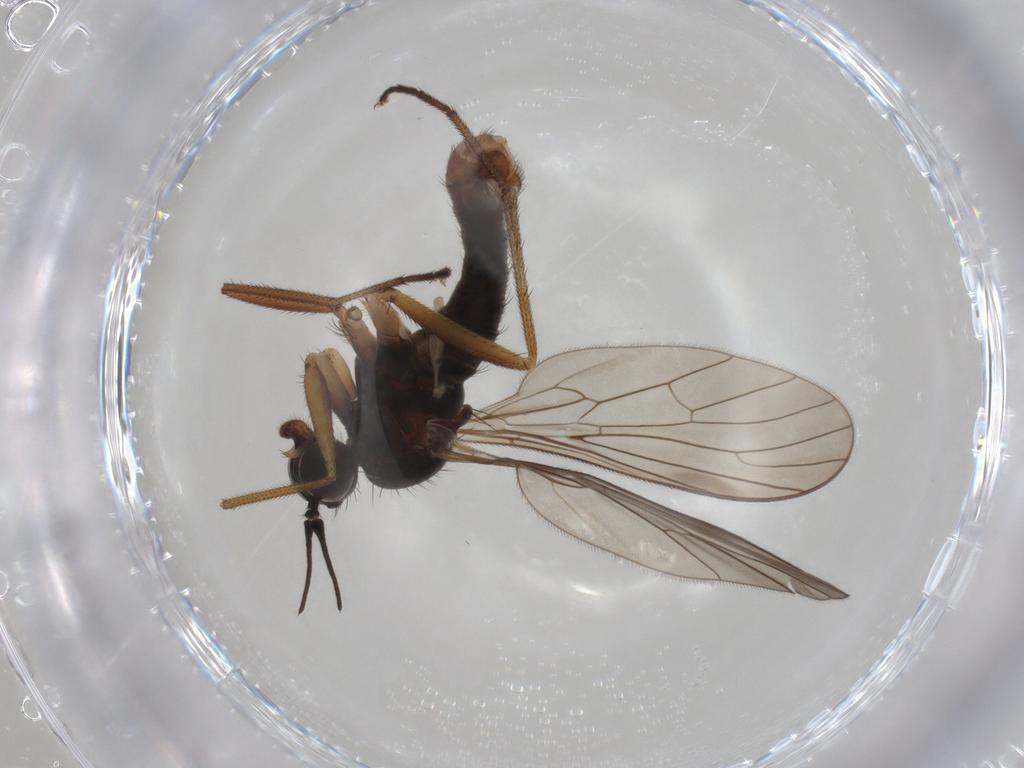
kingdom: Animalia
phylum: Arthropoda
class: Insecta
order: Diptera
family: Empididae
